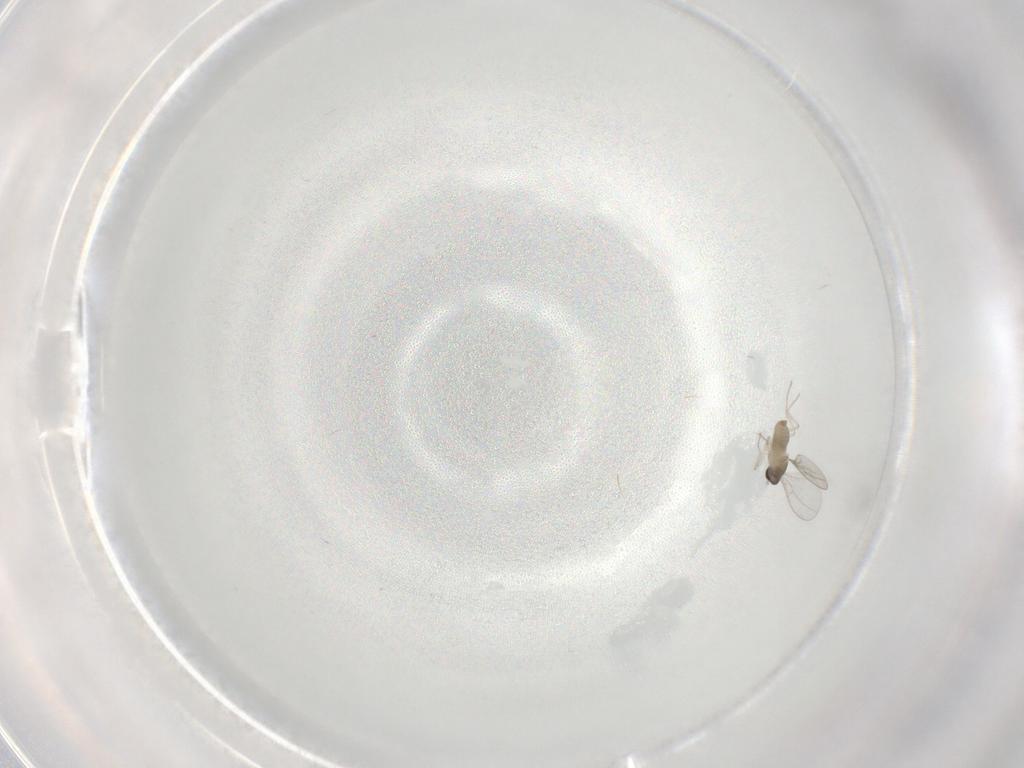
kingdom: Animalia
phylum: Arthropoda
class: Insecta
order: Diptera
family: Cecidomyiidae
